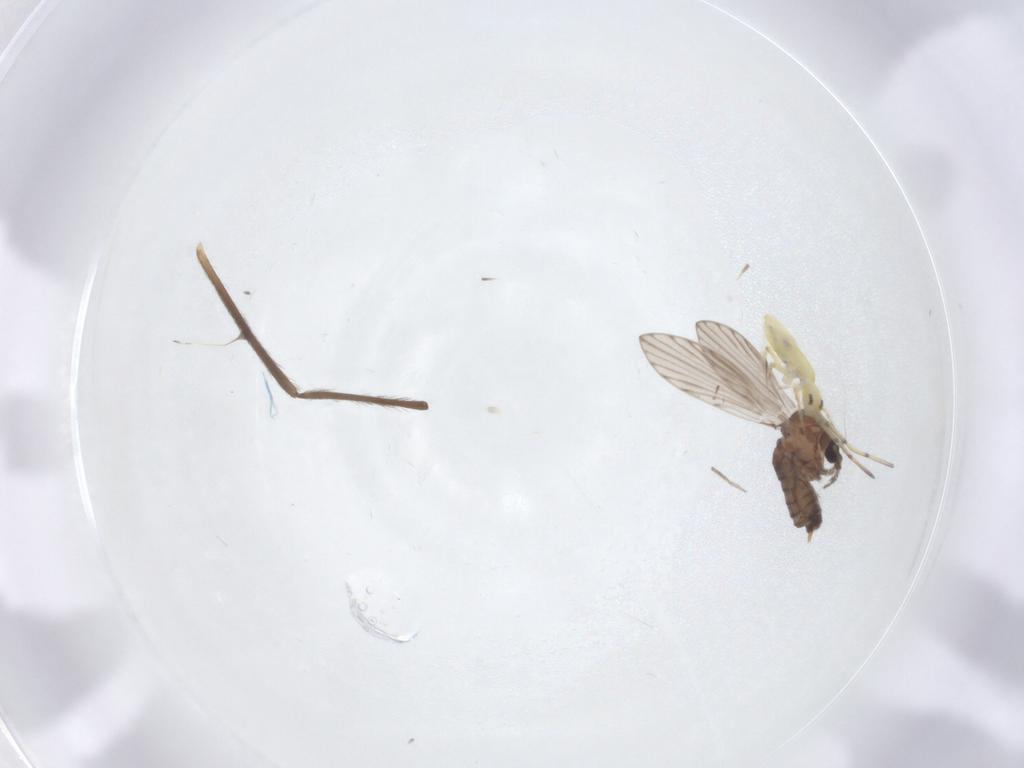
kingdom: Animalia
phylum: Arthropoda
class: Insecta
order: Diptera
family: Psychodidae
